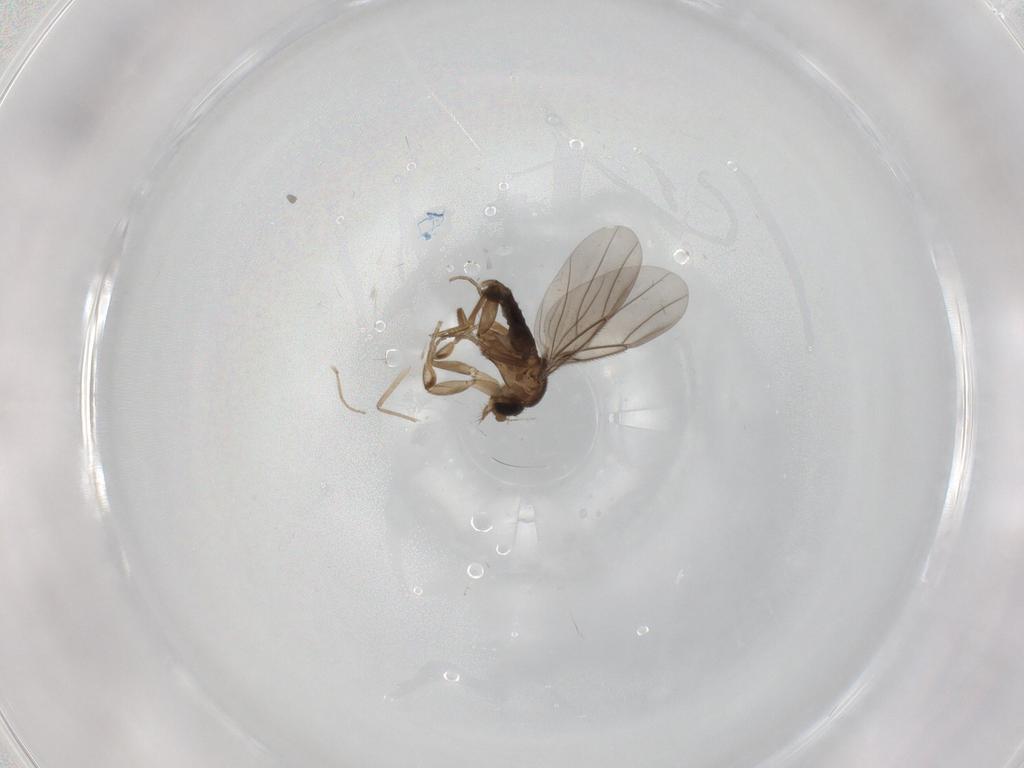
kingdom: Animalia
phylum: Arthropoda
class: Insecta
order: Diptera
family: Phoridae
